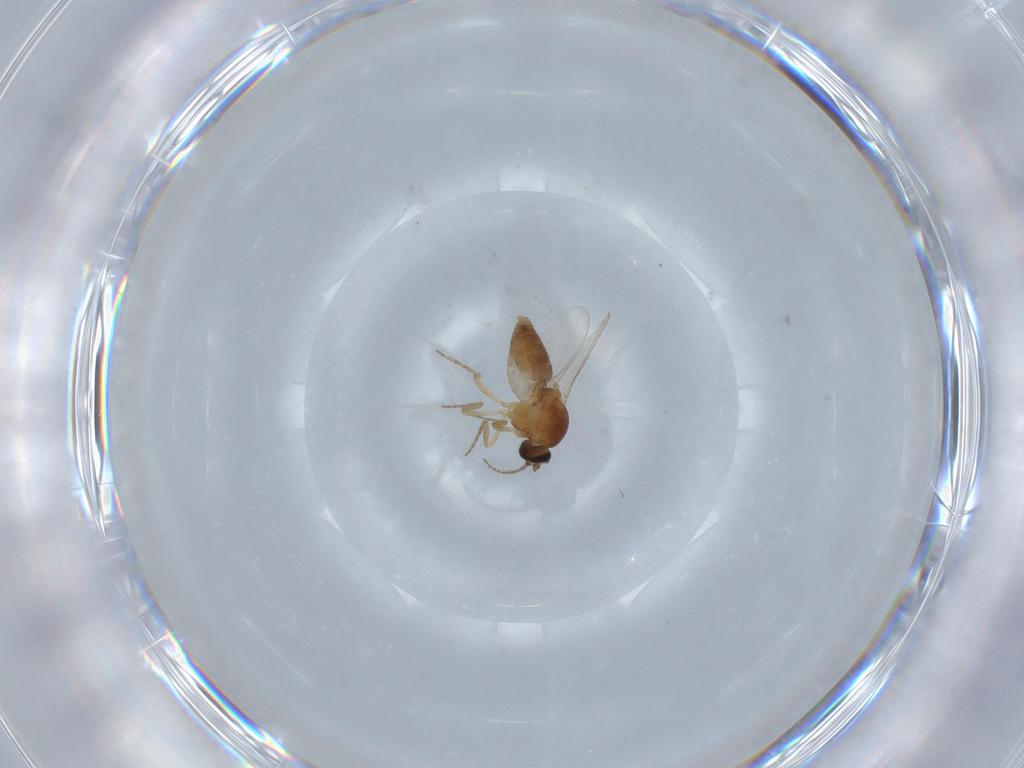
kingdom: Animalia
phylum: Arthropoda
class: Insecta
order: Diptera
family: Ceratopogonidae
